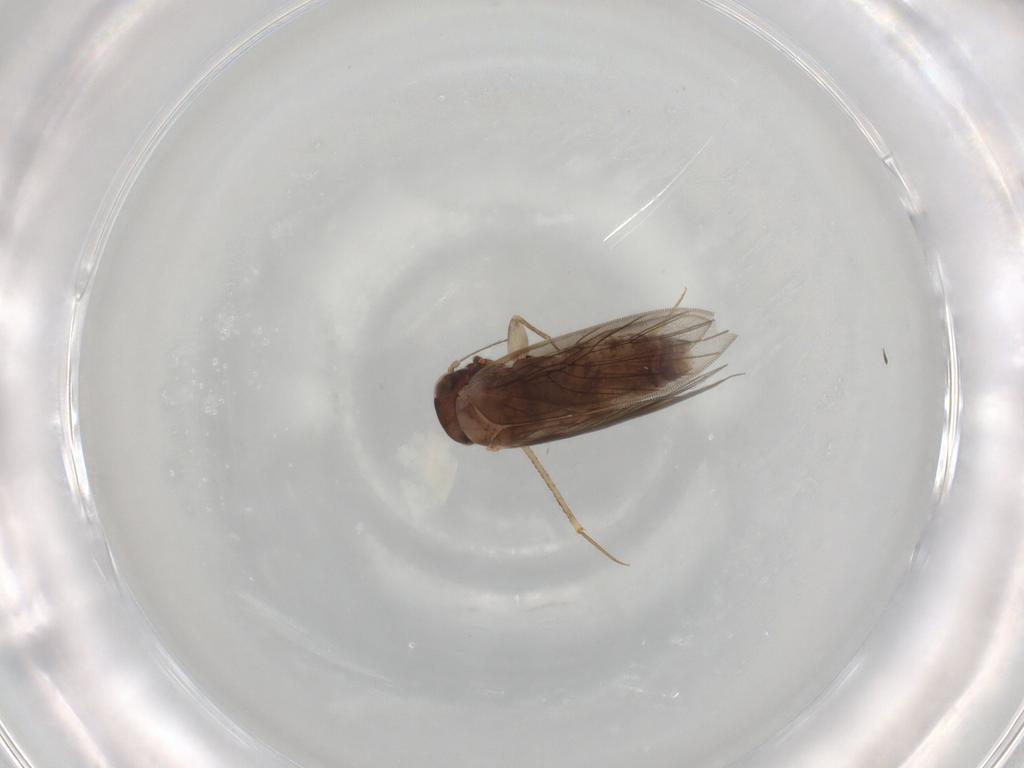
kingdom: Animalia
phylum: Arthropoda
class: Insecta
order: Psocodea
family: Lepidopsocidae
